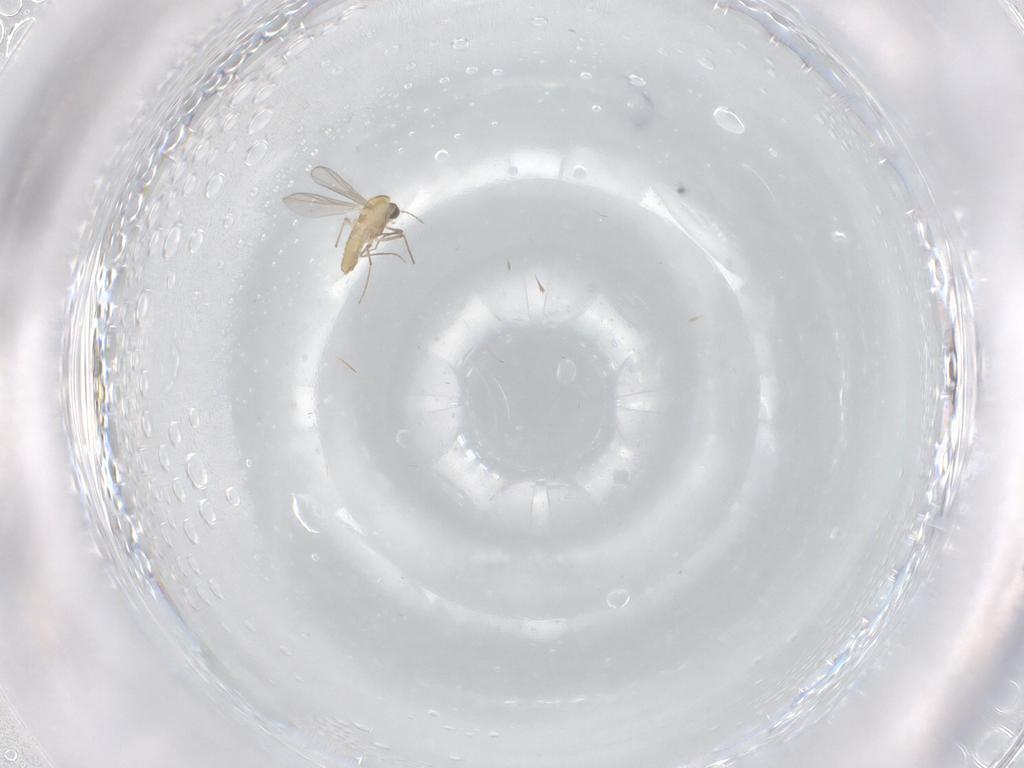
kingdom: Animalia
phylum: Arthropoda
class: Insecta
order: Diptera
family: Chironomidae
